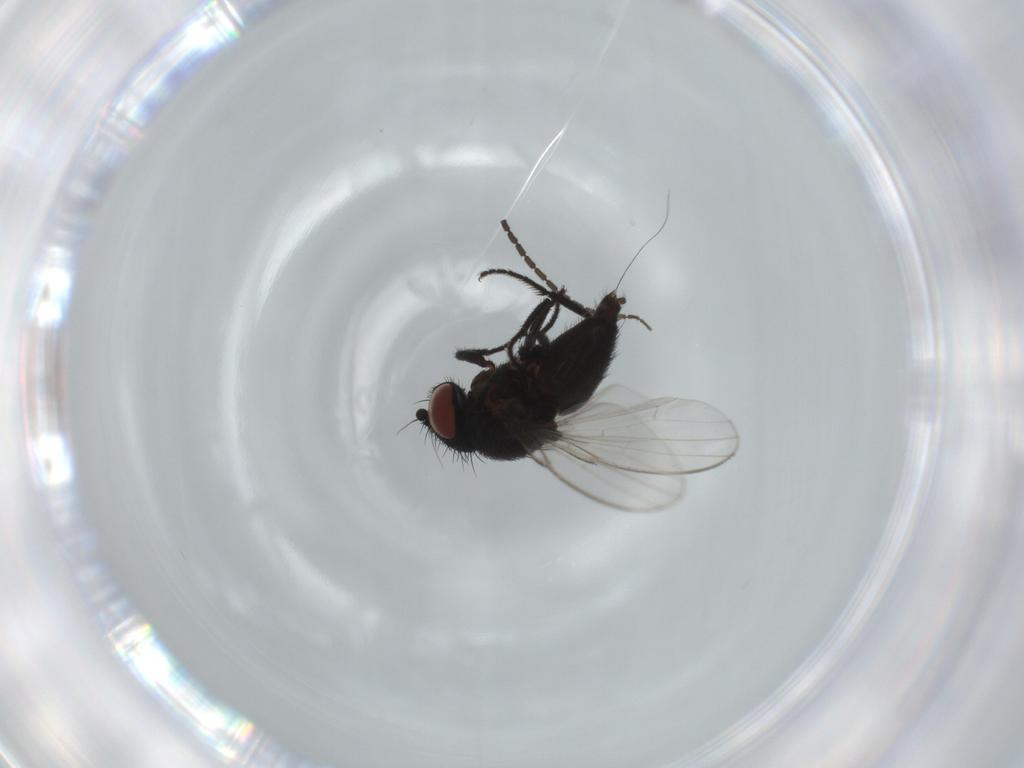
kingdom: Animalia
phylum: Arthropoda
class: Insecta
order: Diptera
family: Milichiidae
